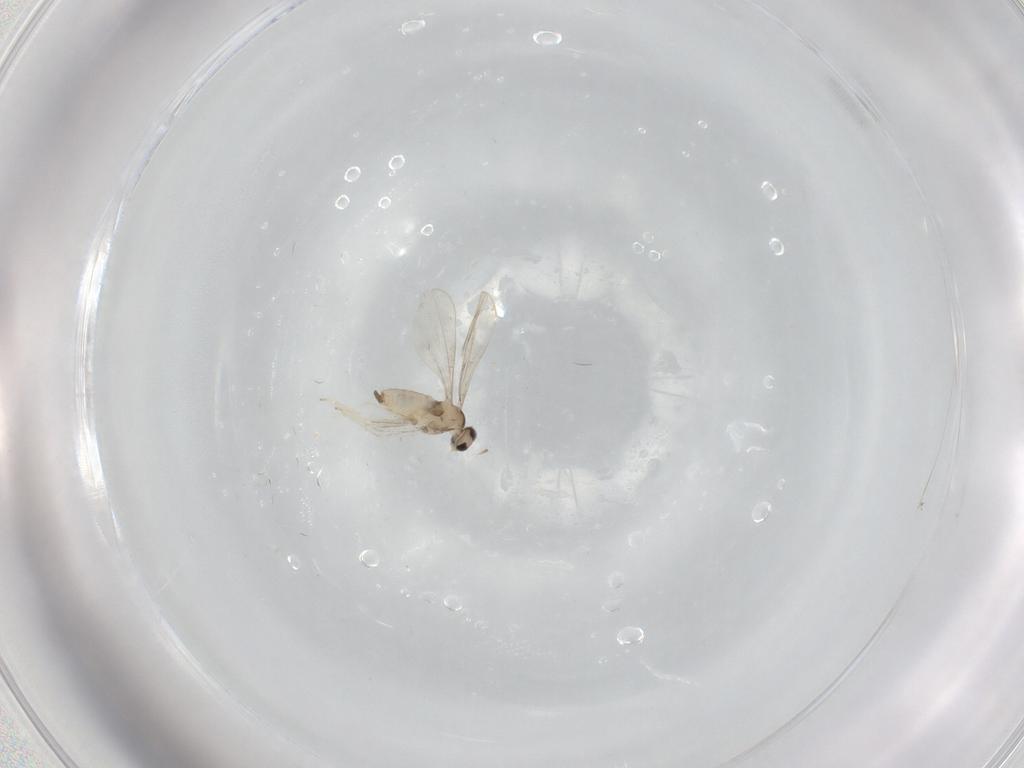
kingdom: Animalia
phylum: Arthropoda
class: Insecta
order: Diptera
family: Cecidomyiidae
